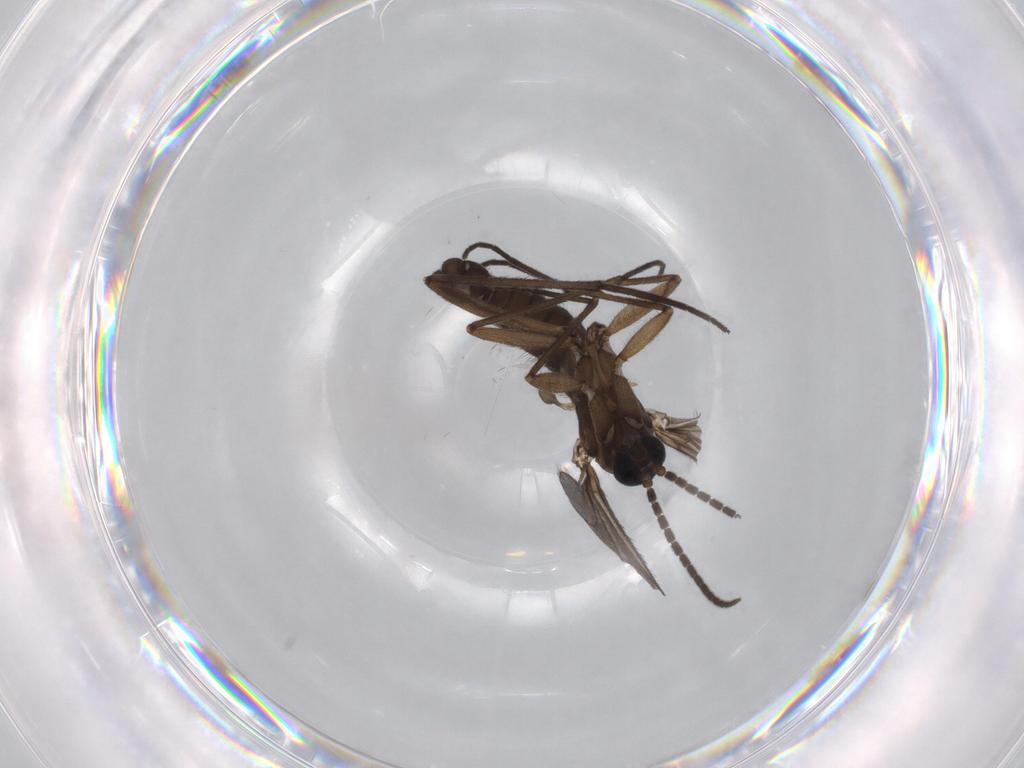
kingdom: Animalia
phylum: Arthropoda
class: Insecta
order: Diptera
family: Sciaridae
